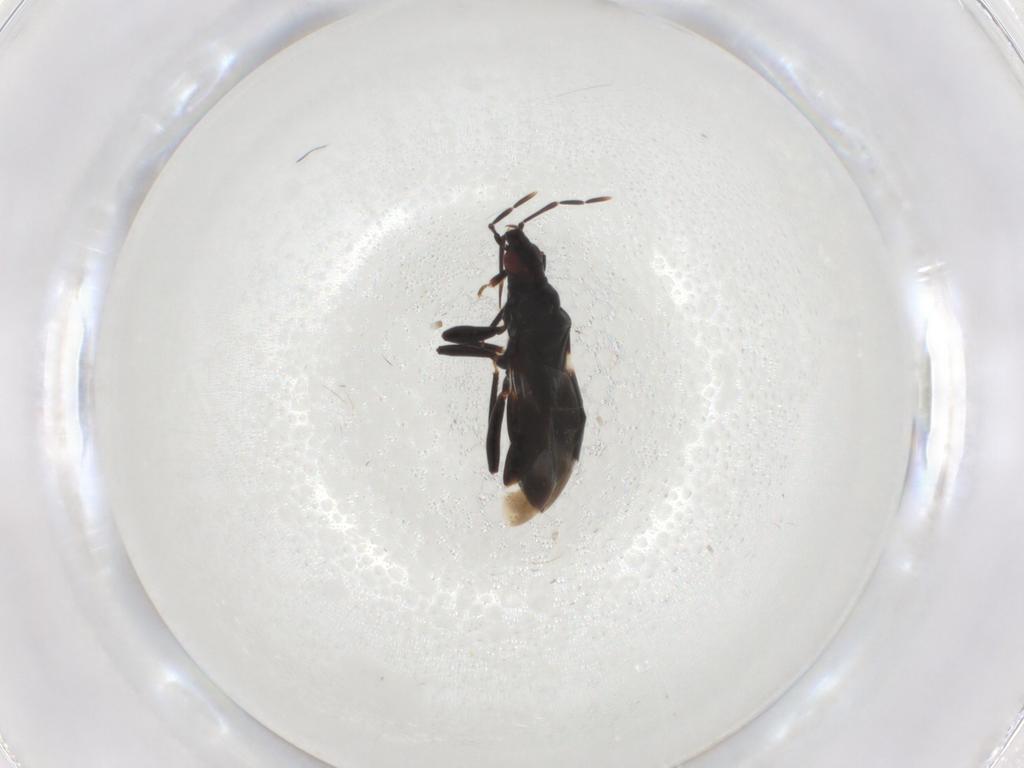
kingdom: Animalia
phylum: Arthropoda
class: Insecta
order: Hemiptera
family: Anthocoridae
